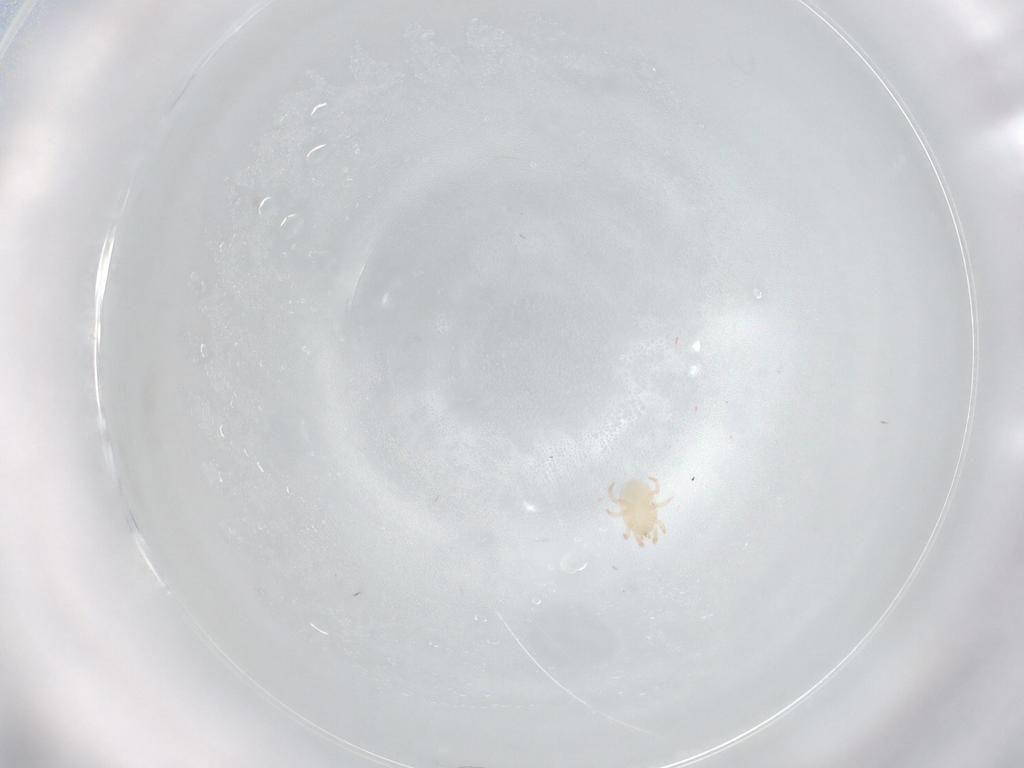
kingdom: Animalia
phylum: Arthropoda
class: Arachnida
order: Mesostigmata
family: Melicharidae
